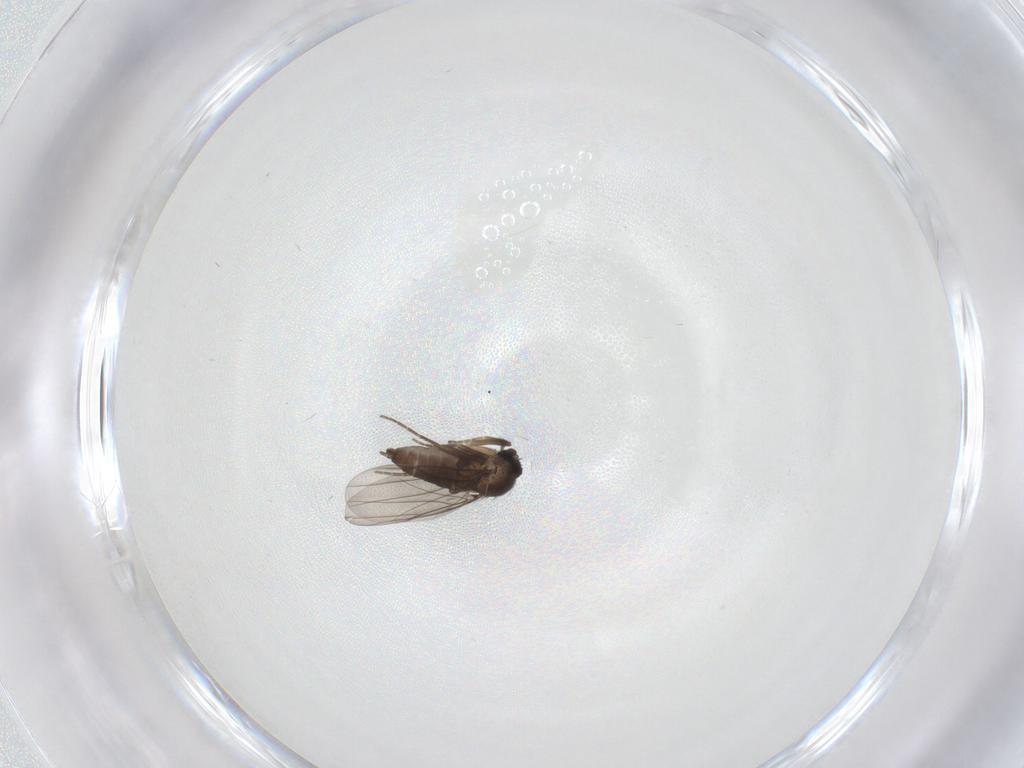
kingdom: Animalia
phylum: Arthropoda
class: Insecta
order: Diptera
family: Phoridae
